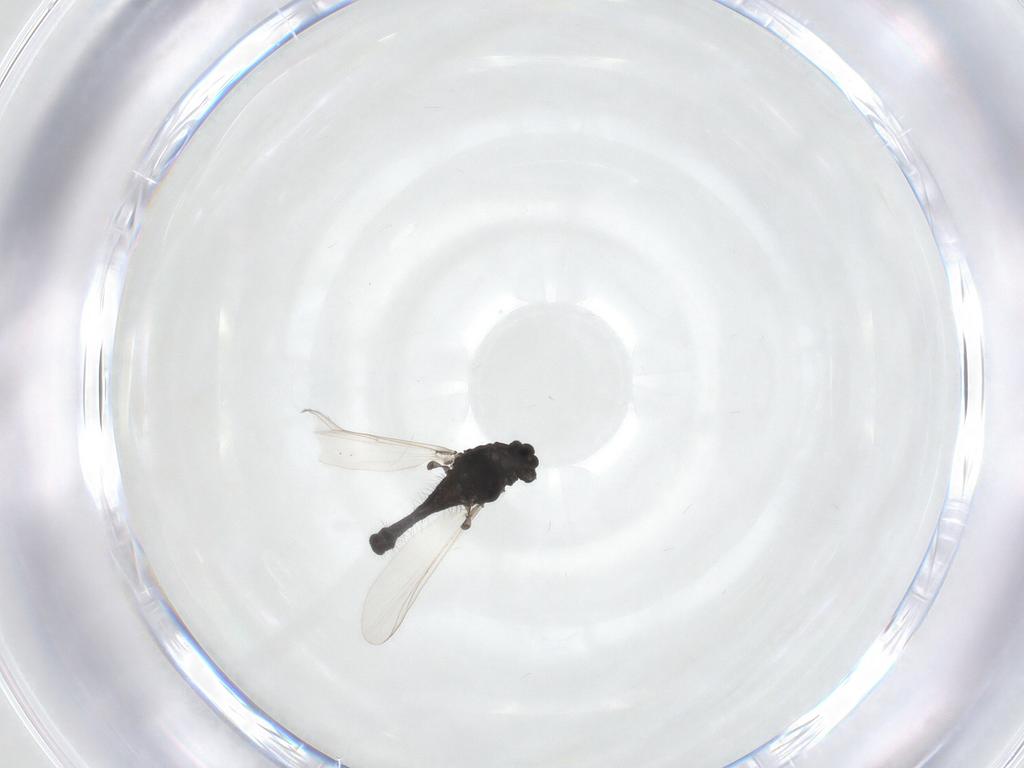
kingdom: Animalia
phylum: Arthropoda
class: Insecta
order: Diptera
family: Chironomidae
